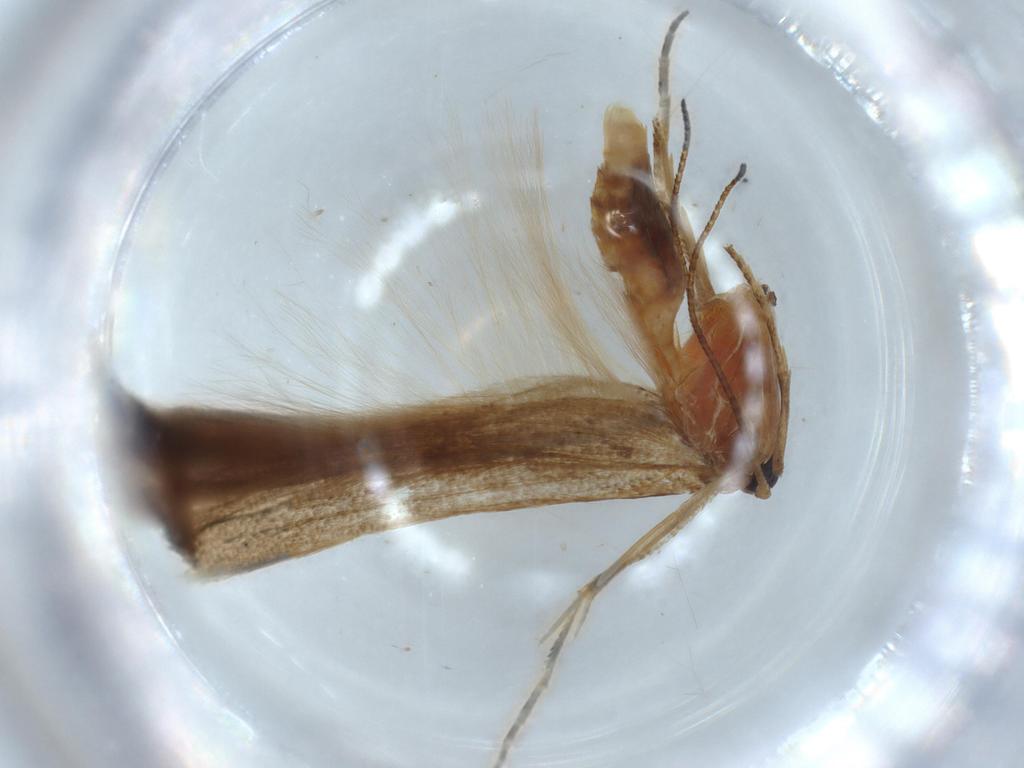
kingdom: Animalia
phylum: Arthropoda
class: Insecta
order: Lepidoptera
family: Stathmopodidae
